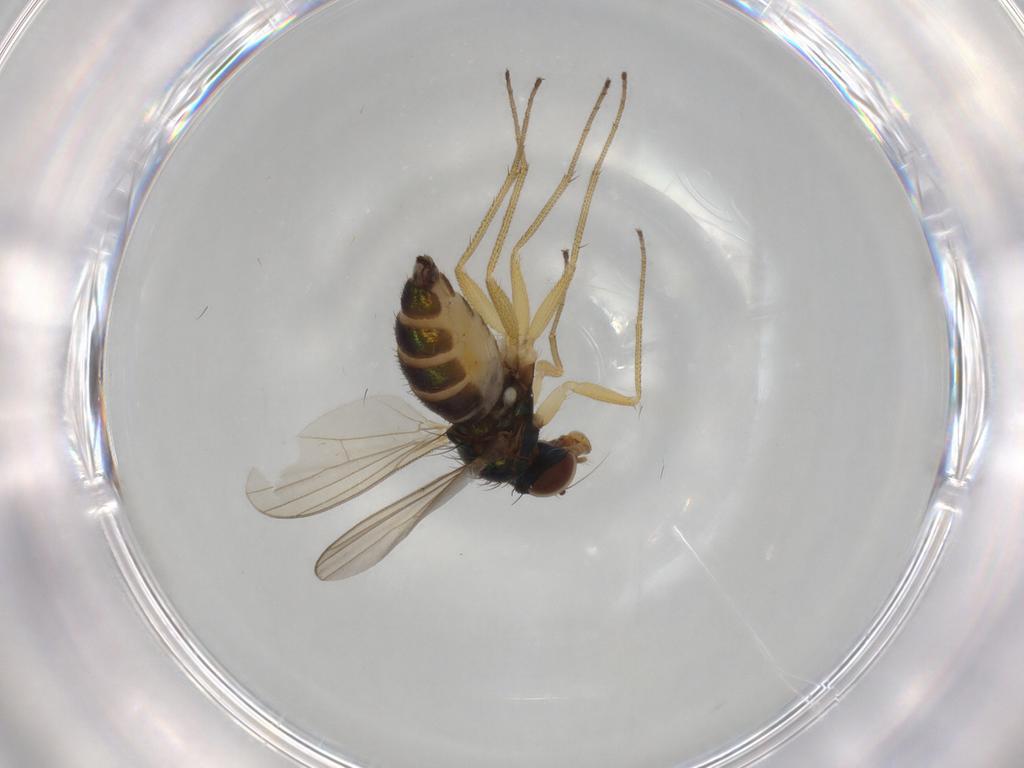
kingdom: Animalia
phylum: Arthropoda
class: Insecta
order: Diptera
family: Dolichopodidae
